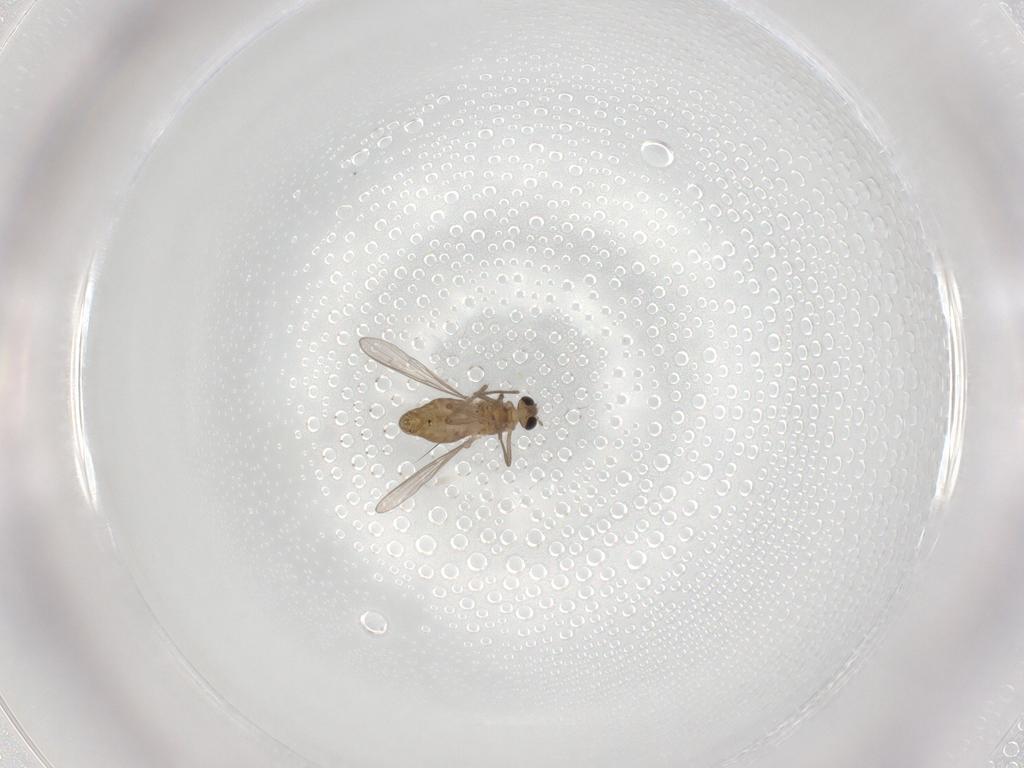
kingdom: Animalia
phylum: Arthropoda
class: Insecta
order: Diptera
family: Chironomidae
